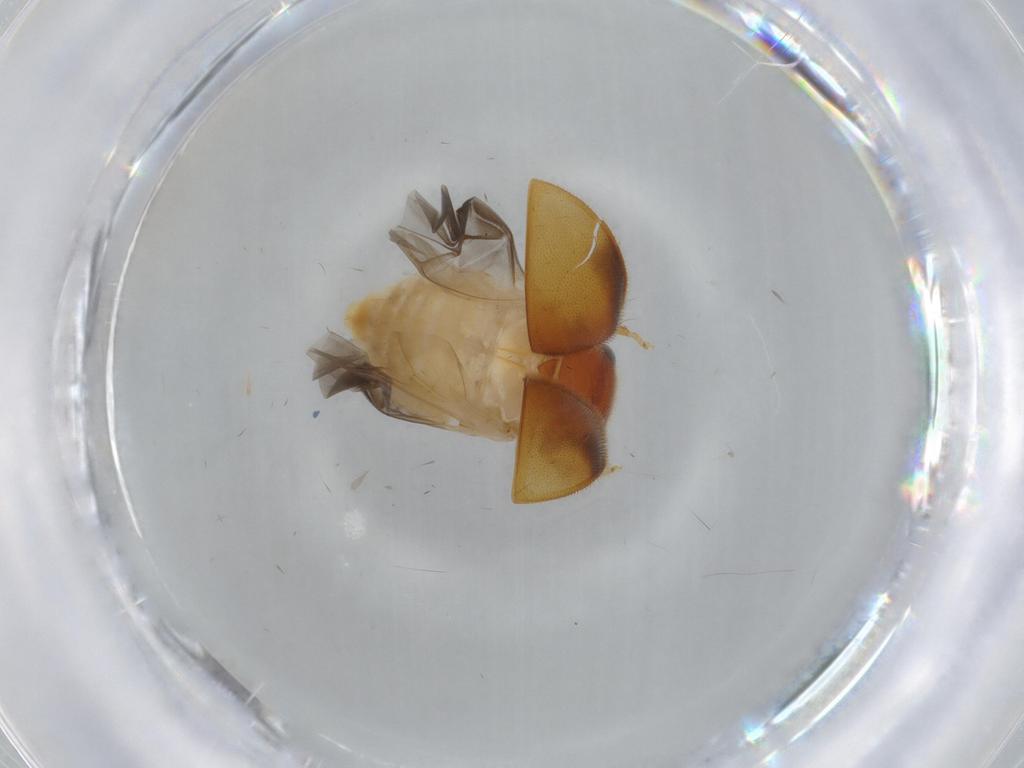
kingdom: Animalia
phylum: Arthropoda
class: Insecta
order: Coleoptera
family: Scirtidae
